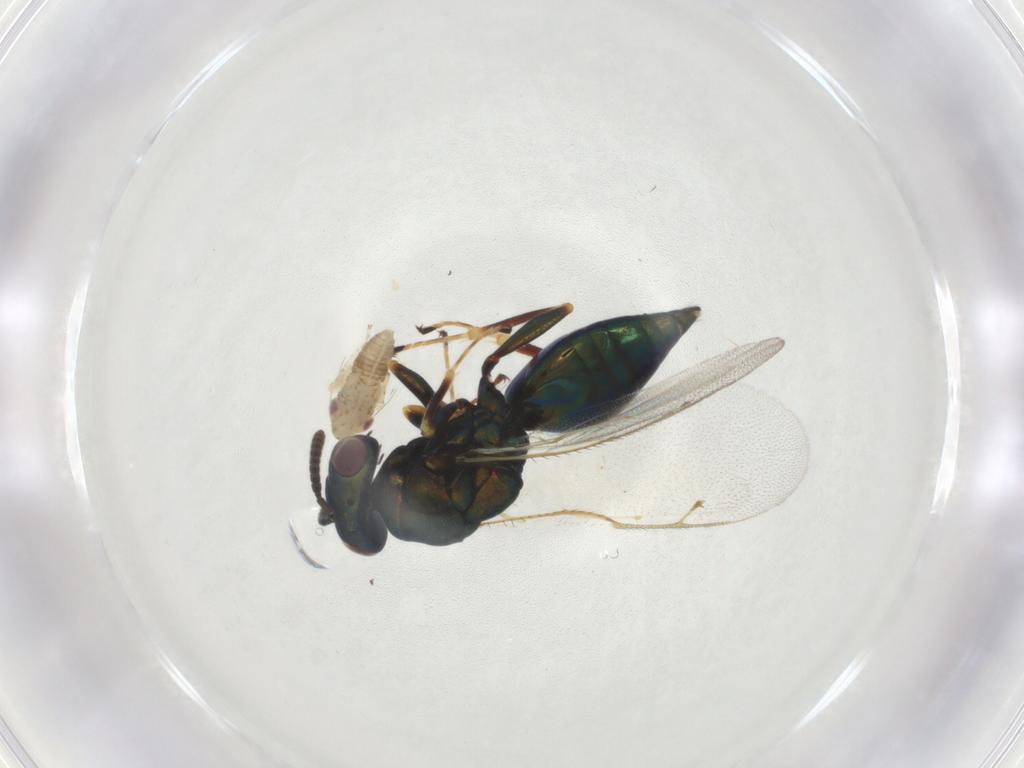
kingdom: Animalia
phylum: Arthropoda
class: Insecta
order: Hymenoptera
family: Pteromalidae
